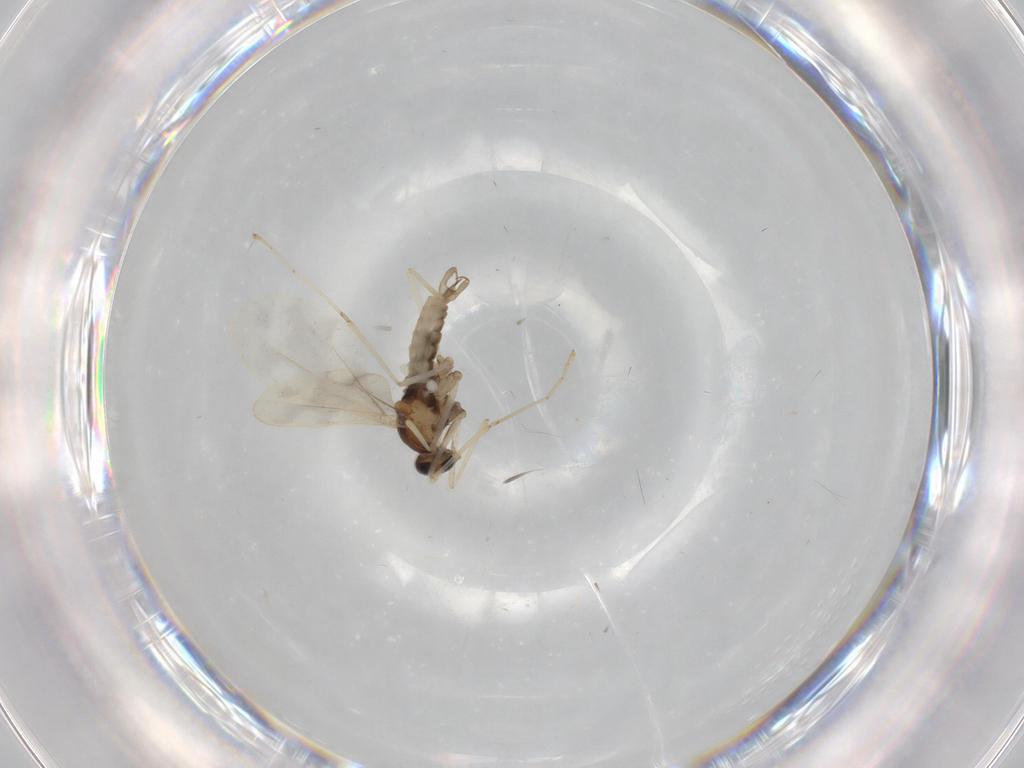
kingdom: Animalia
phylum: Arthropoda
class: Insecta
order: Diptera
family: Cecidomyiidae
